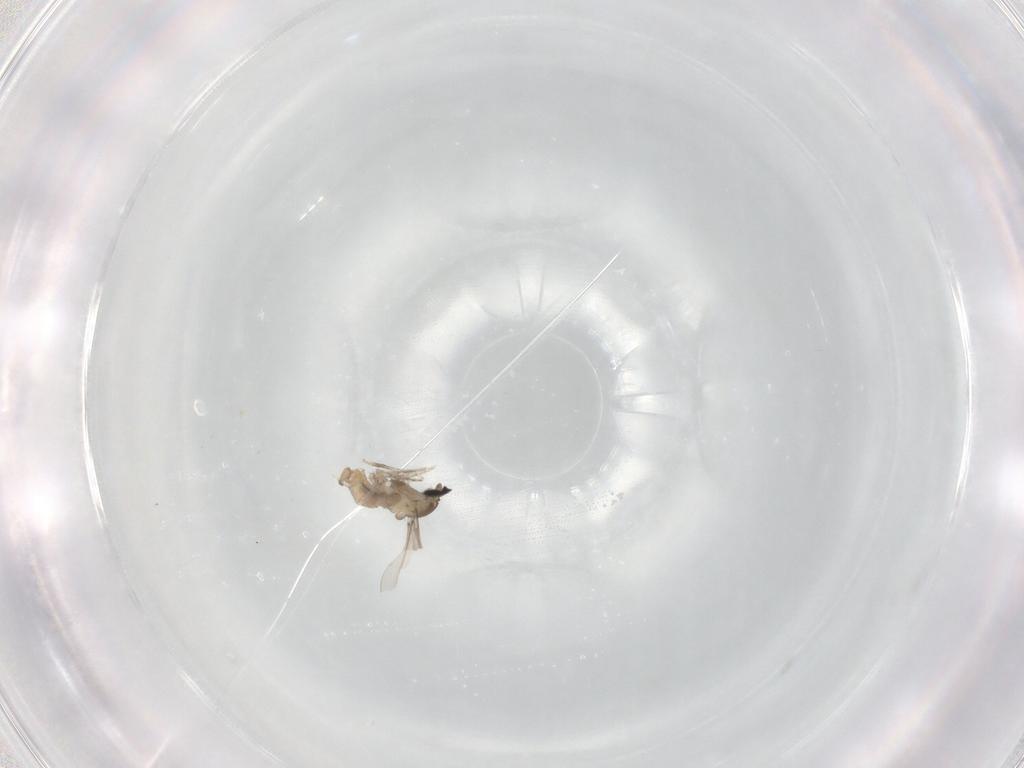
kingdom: Animalia
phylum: Arthropoda
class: Insecta
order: Diptera
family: Cecidomyiidae
